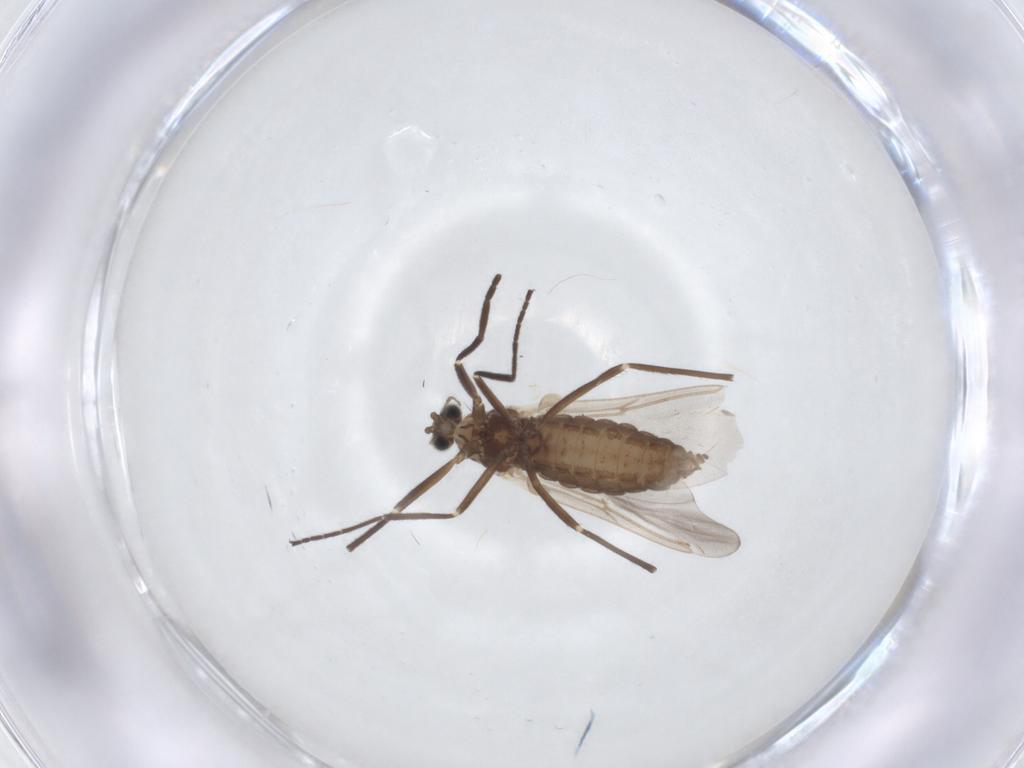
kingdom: Animalia
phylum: Arthropoda
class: Insecta
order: Diptera
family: Cecidomyiidae
